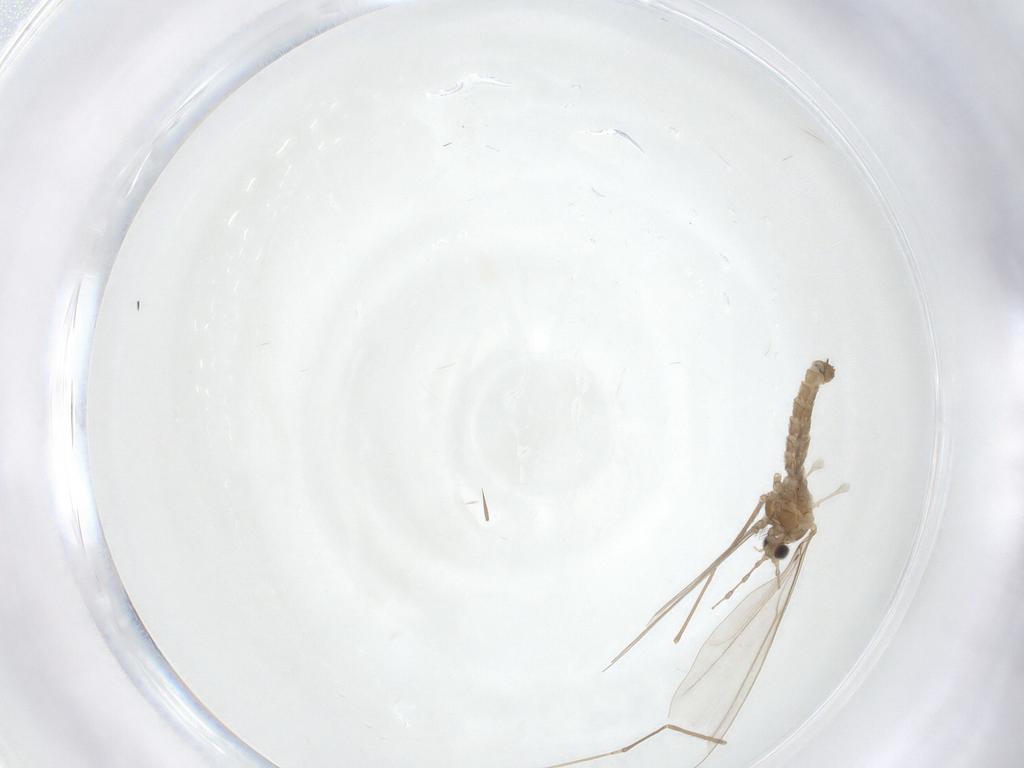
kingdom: Animalia
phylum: Arthropoda
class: Insecta
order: Diptera
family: Cecidomyiidae
